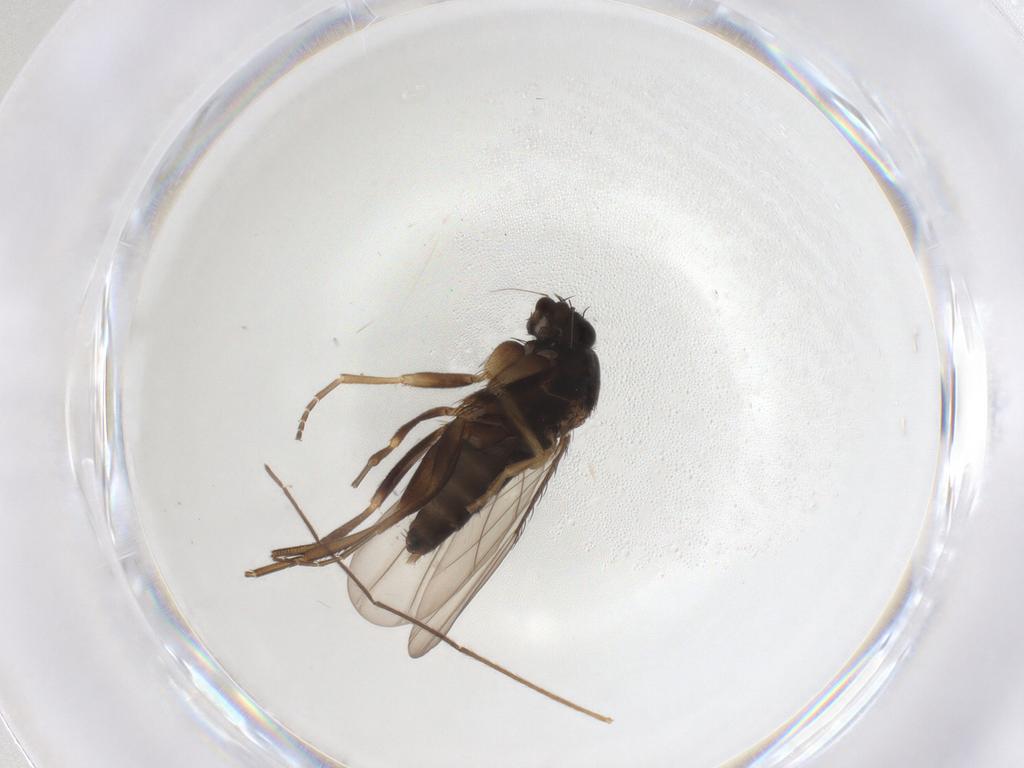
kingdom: Animalia
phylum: Arthropoda
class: Insecta
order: Diptera
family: Phoridae
